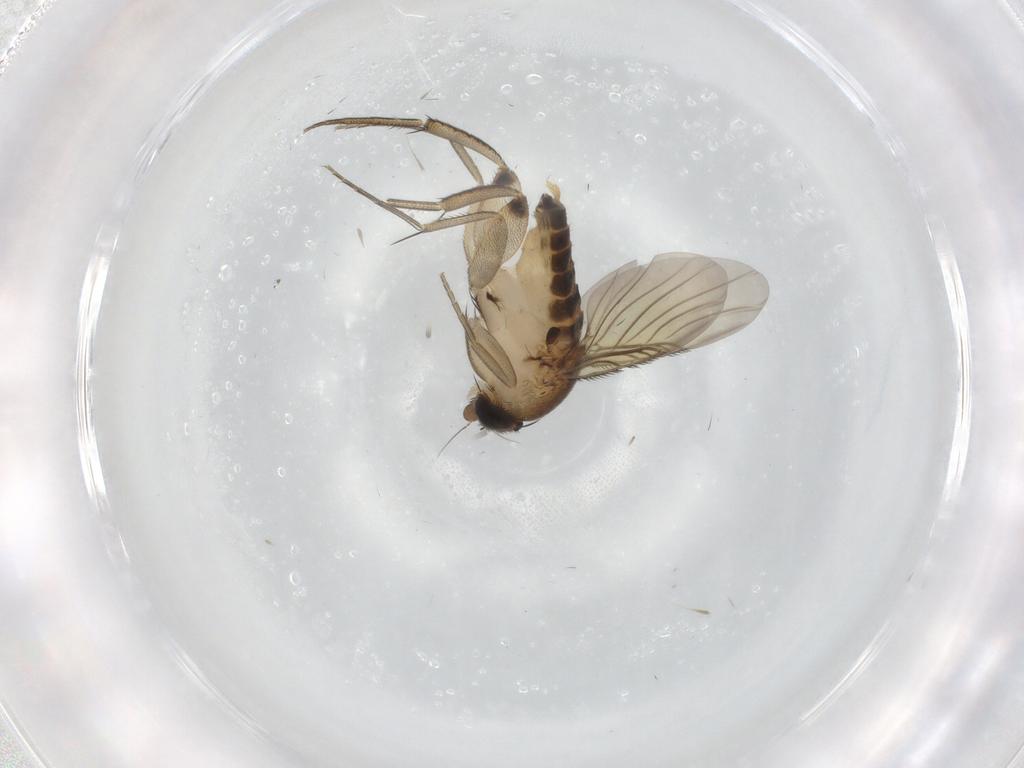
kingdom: Animalia
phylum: Arthropoda
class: Insecta
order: Diptera
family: Phoridae
